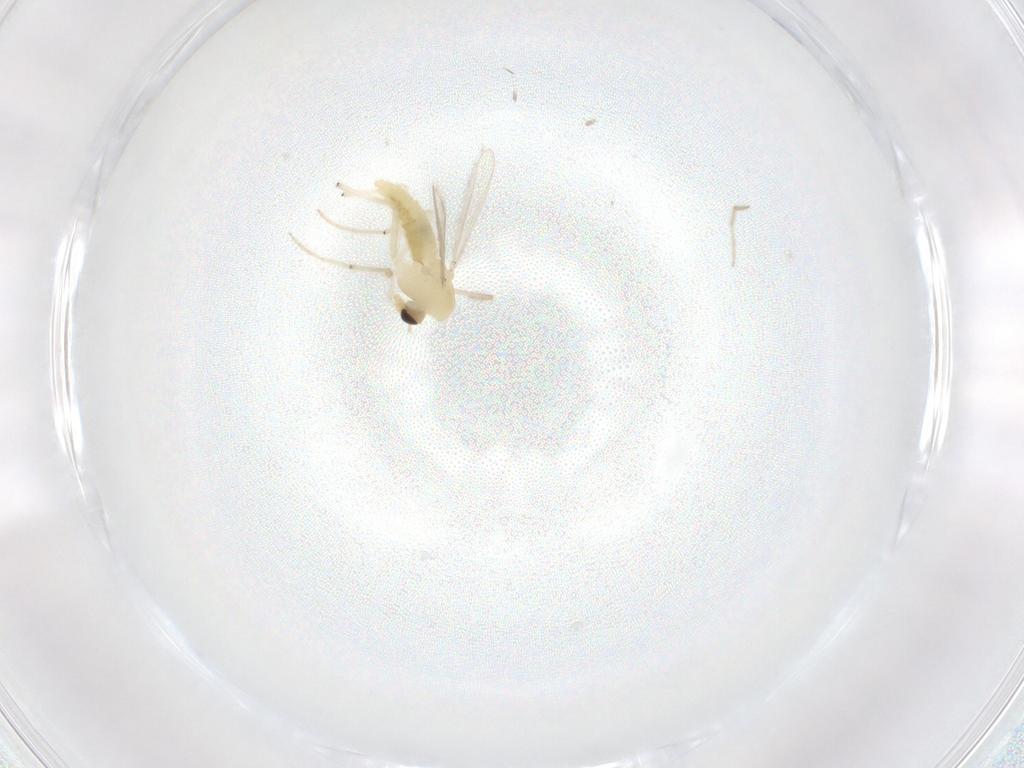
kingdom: Animalia
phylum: Arthropoda
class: Insecta
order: Diptera
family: Chironomidae
